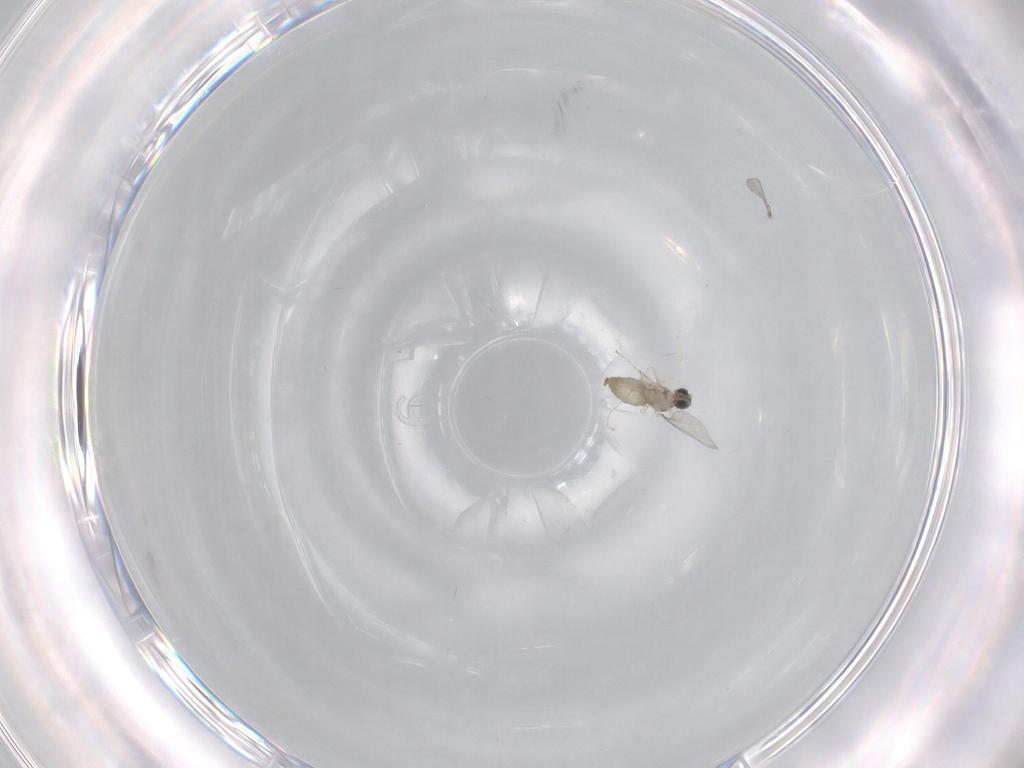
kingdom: Animalia
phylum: Arthropoda
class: Insecta
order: Diptera
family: Cecidomyiidae
